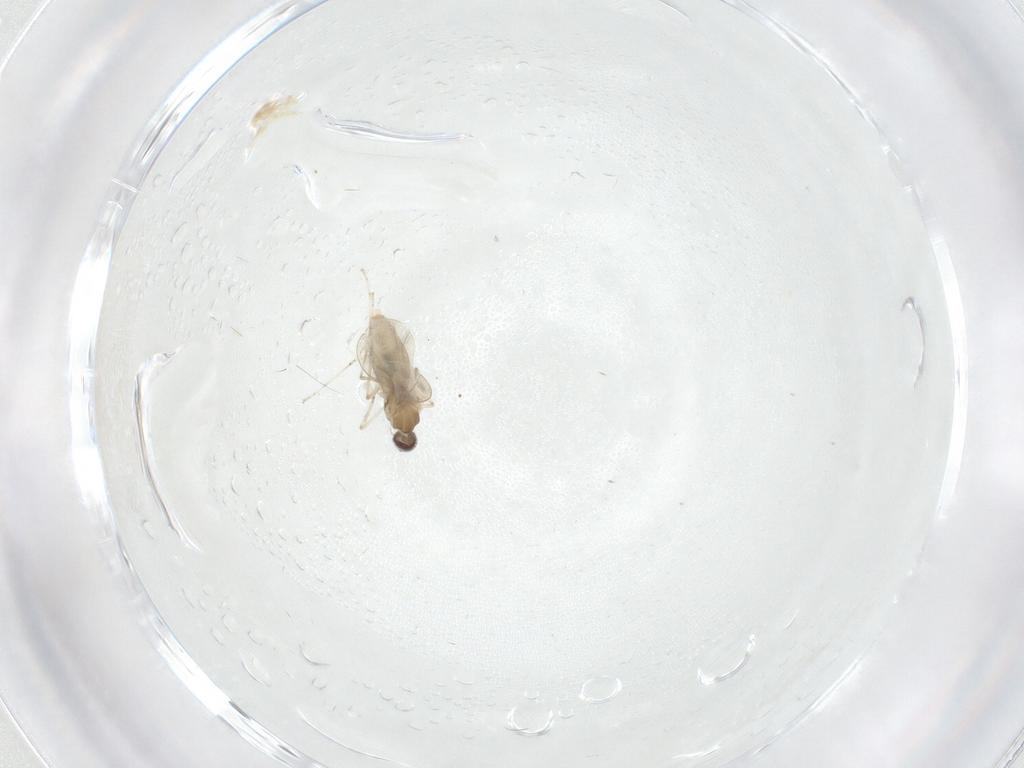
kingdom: Animalia
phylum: Arthropoda
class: Insecta
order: Diptera
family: Cecidomyiidae
